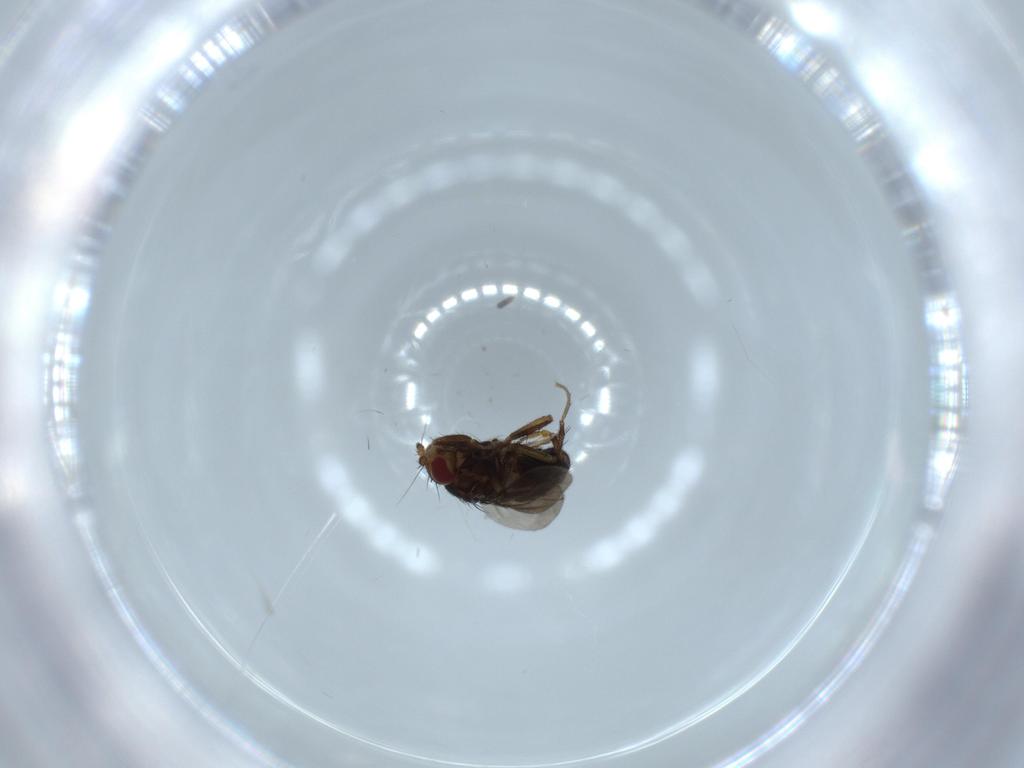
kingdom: Animalia
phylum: Arthropoda
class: Insecta
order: Diptera
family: Sphaeroceridae
